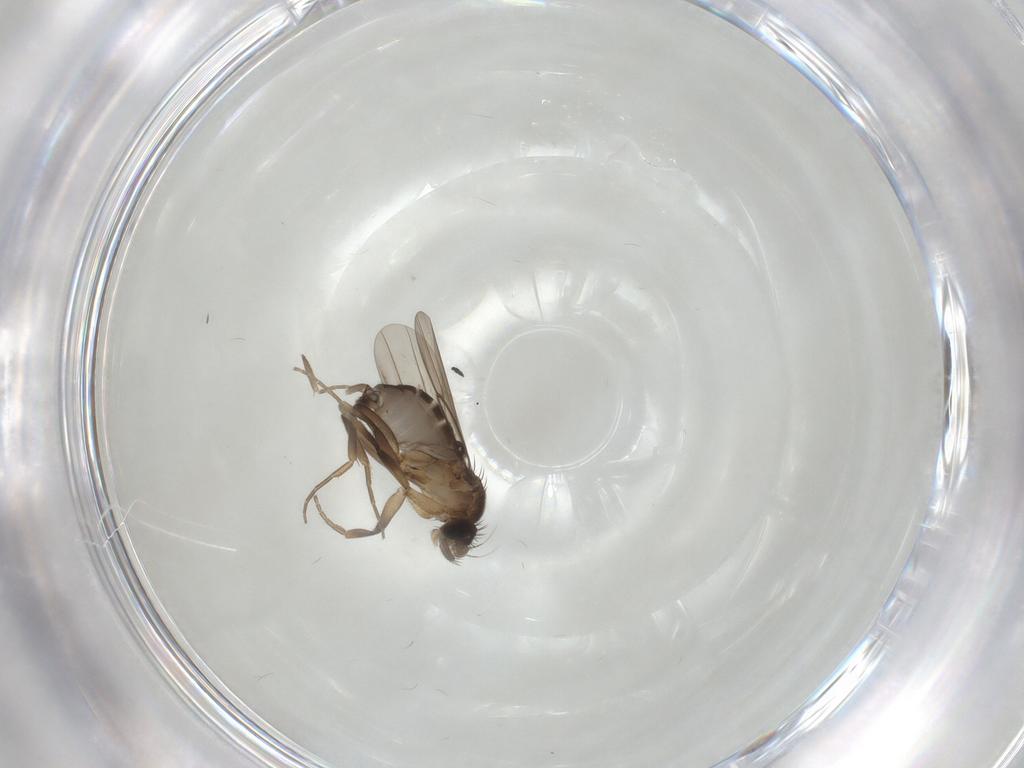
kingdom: Animalia
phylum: Arthropoda
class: Insecta
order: Diptera
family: Phoridae
